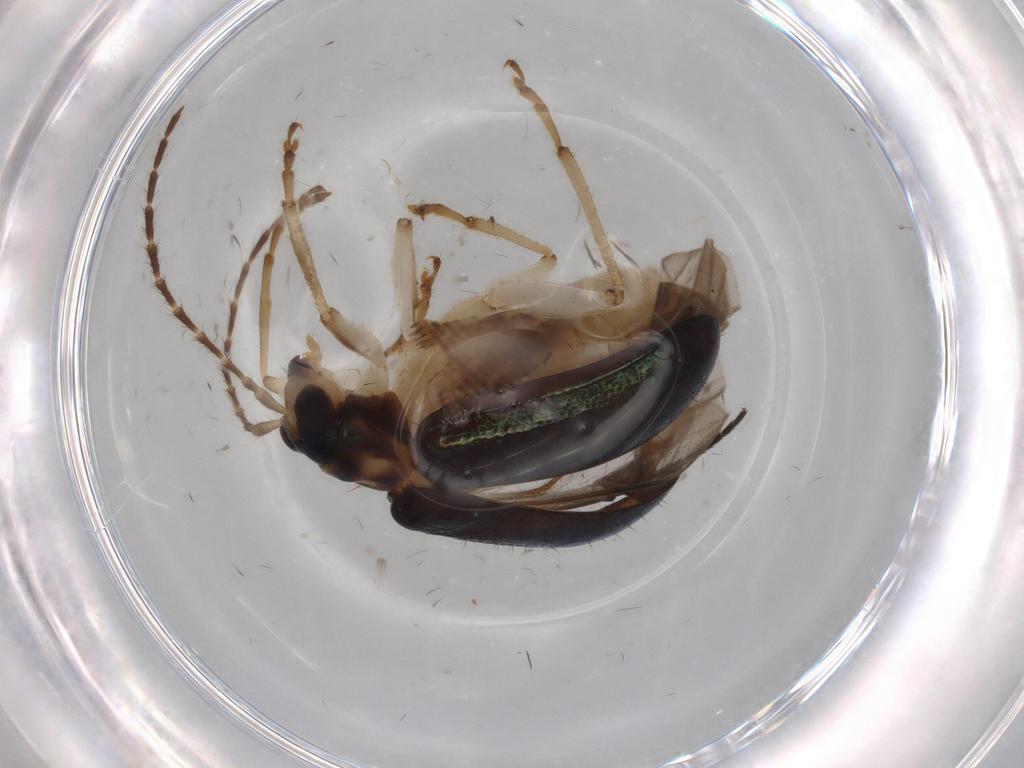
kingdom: Animalia
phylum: Arthropoda
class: Insecta
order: Coleoptera
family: Chrysomelidae
